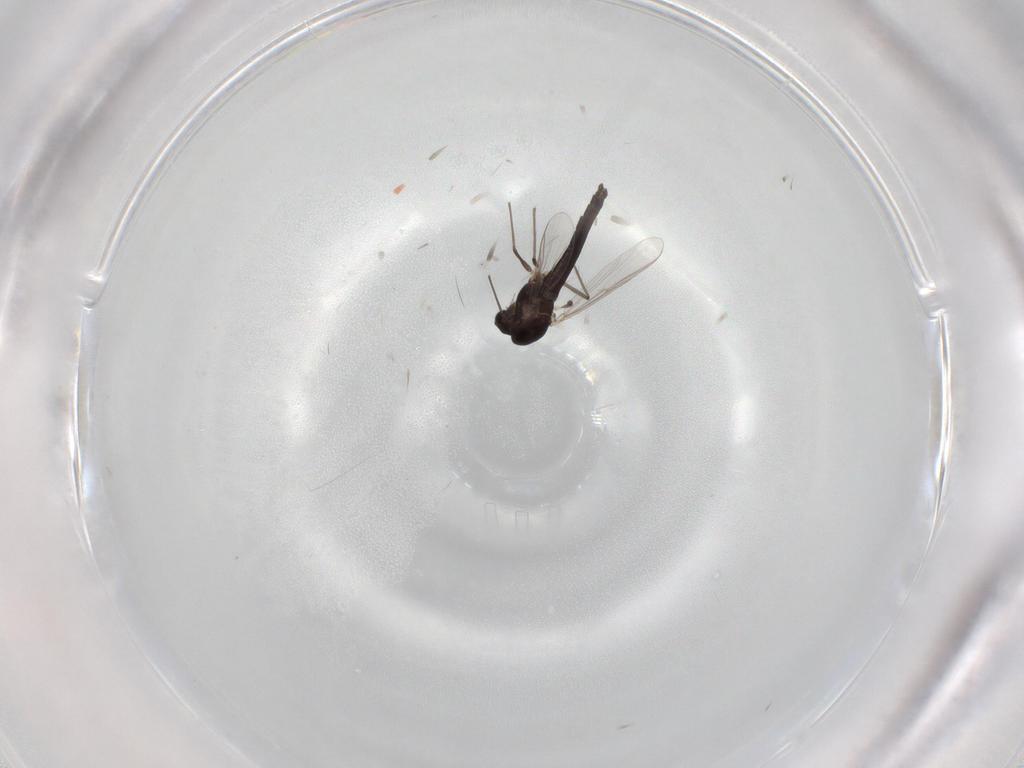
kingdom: Animalia
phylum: Arthropoda
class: Insecta
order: Diptera
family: Chironomidae
